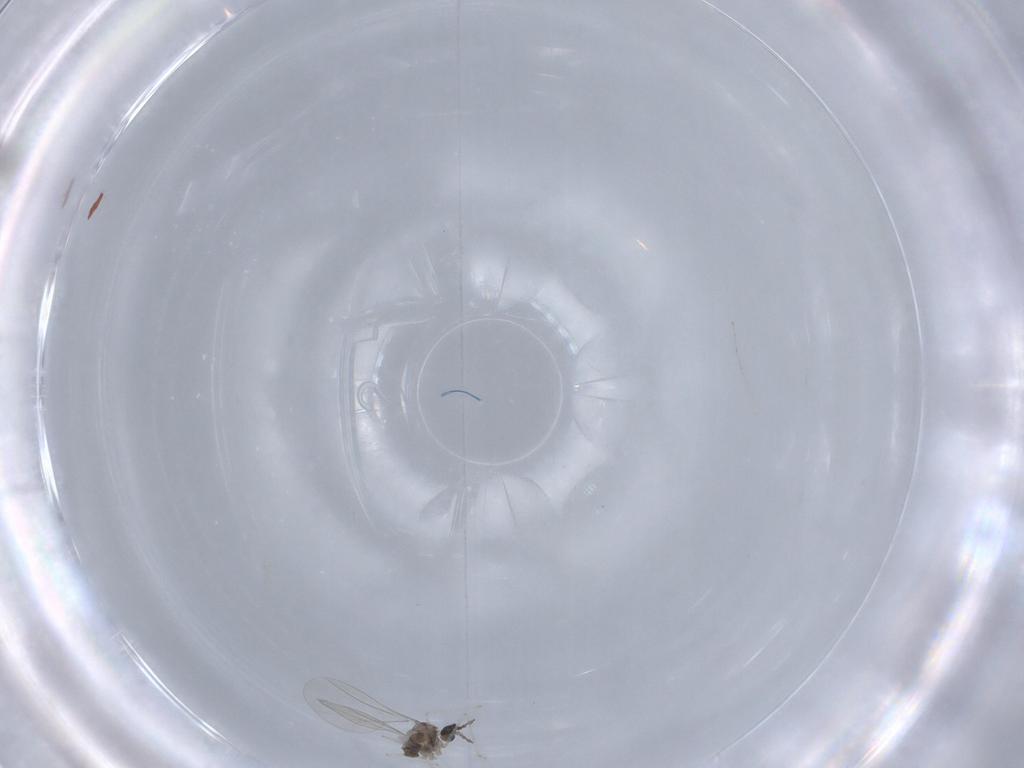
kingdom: Animalia
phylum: Arthropoda
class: Insecta
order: Diptera
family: Cecidomyiidae
